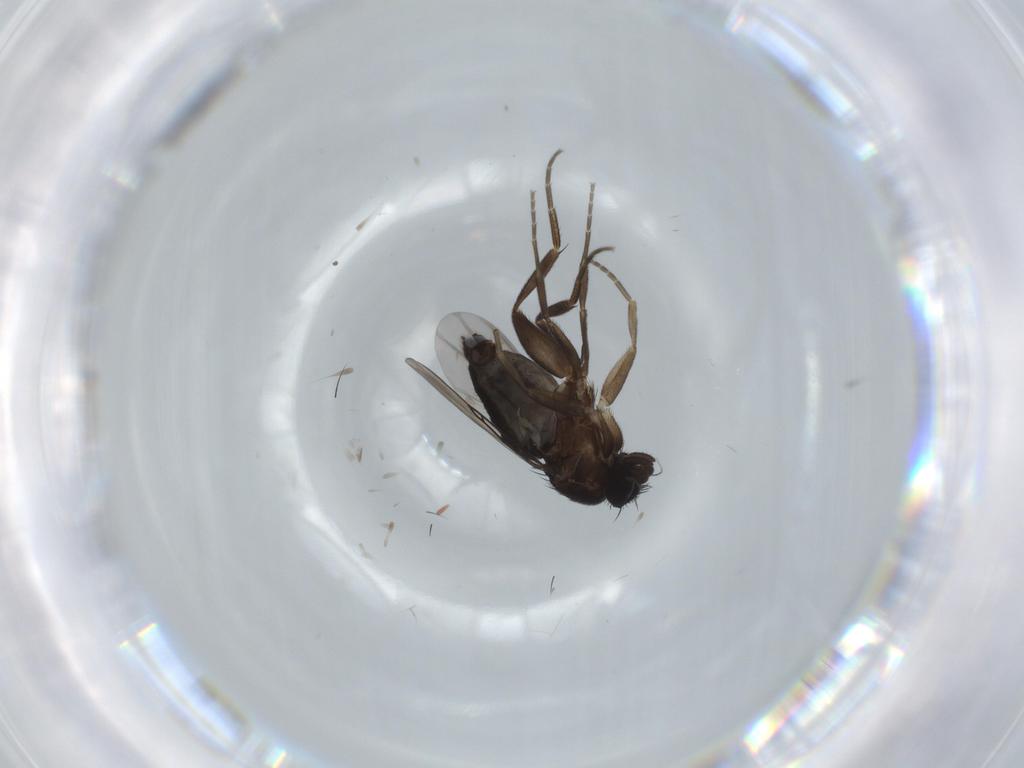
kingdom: Animalia
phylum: Arthropoda
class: Insecta
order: Diptera
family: Phoridae
